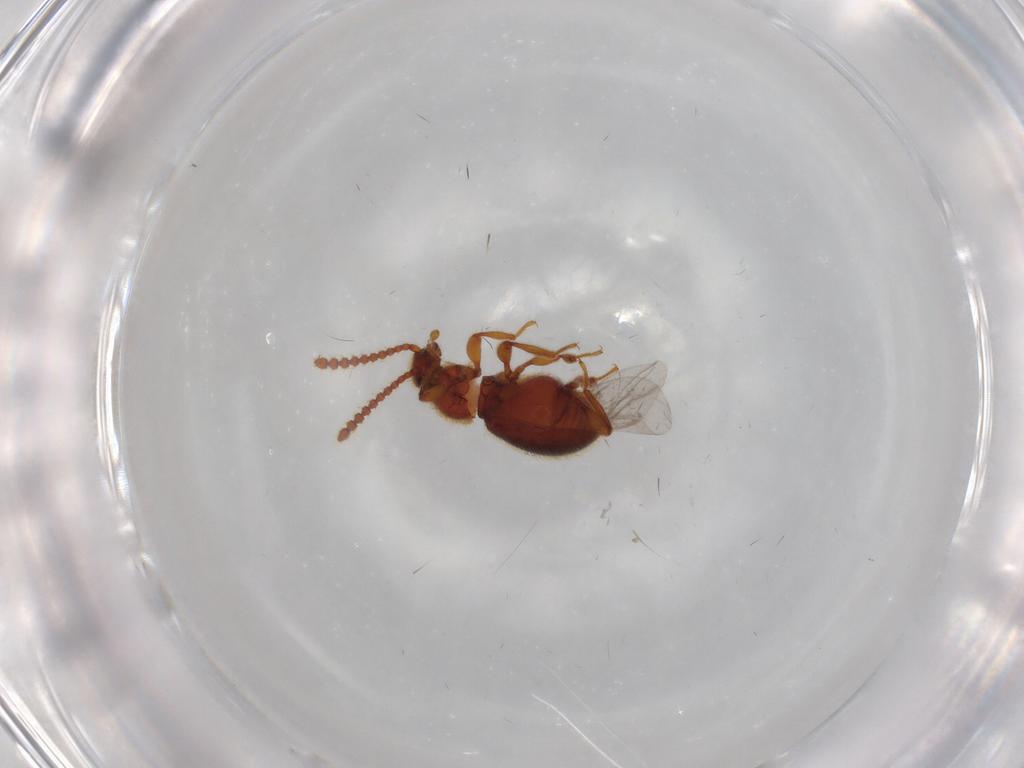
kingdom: Animalia
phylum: Arthropoda
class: Insecta
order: Coleoptera
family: Staphylinidae
